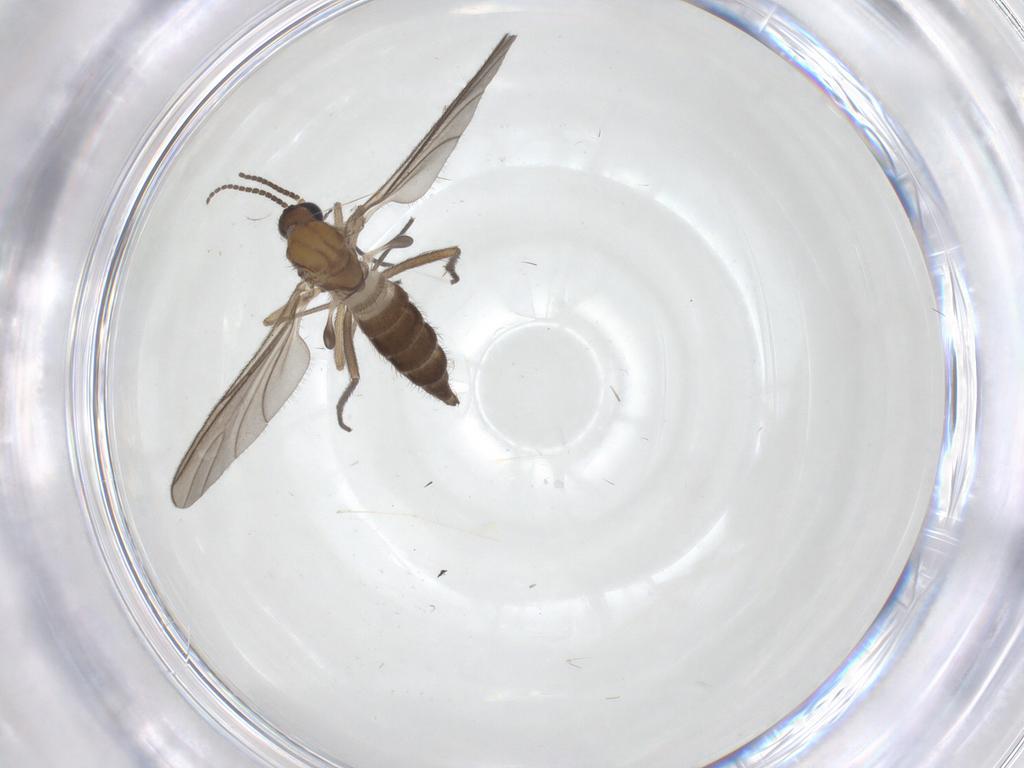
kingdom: Animalia
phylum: Arthropoda
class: Insecta
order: Diptera
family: Sciaridae
